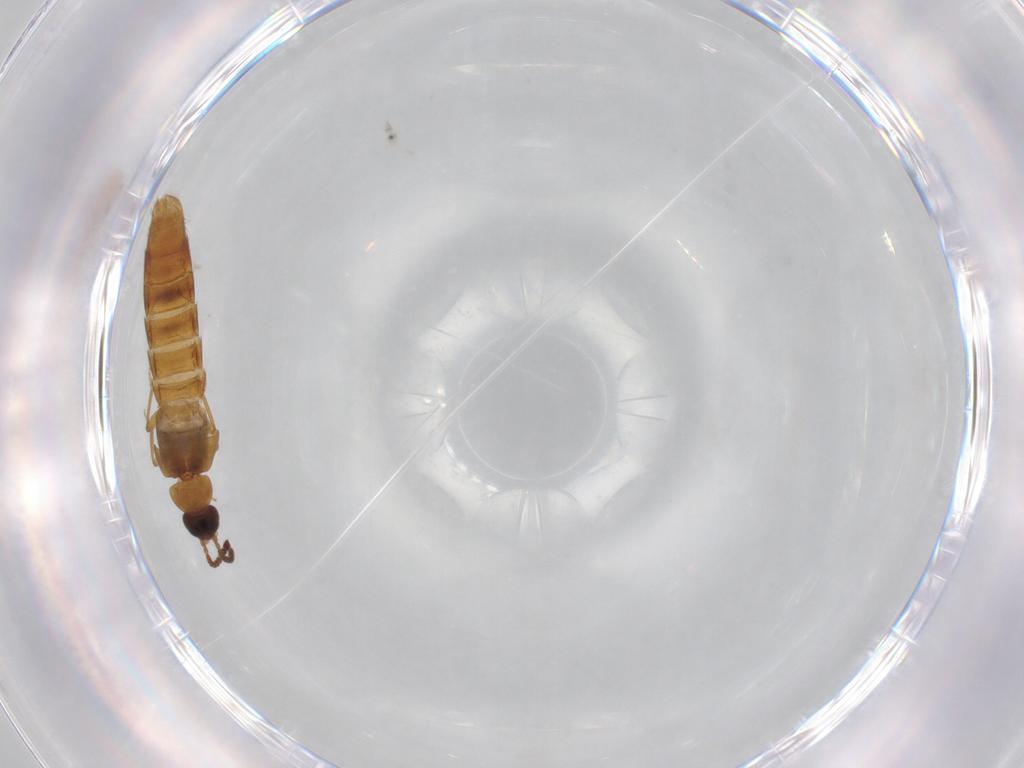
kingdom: Animalia
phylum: Arthropoda
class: Insecta
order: Coleoptera
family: Staphylinidae
